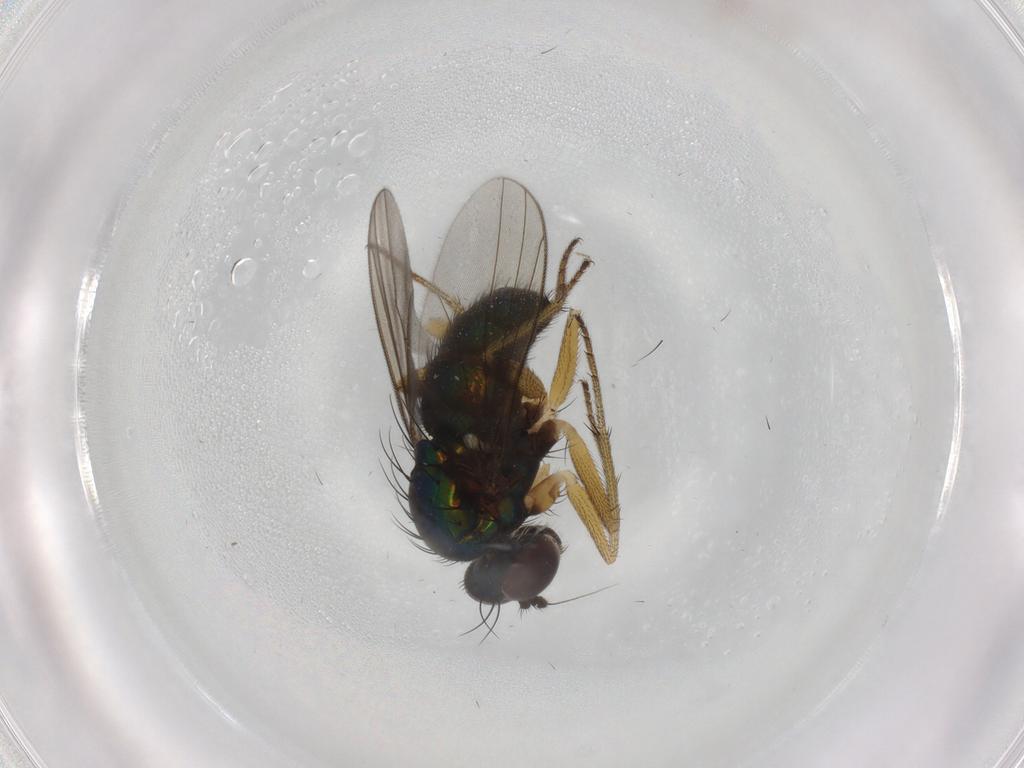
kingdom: Animalia
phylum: Arthropoda
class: Insecta
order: Diptera
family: Dolichopodidae
